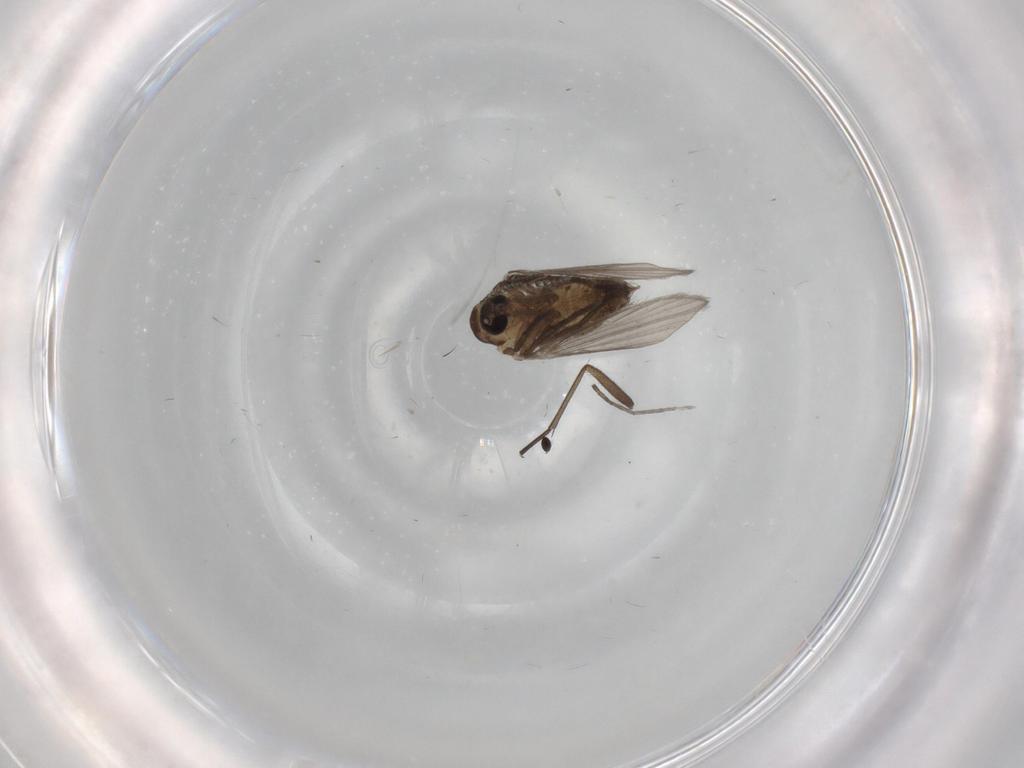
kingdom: Animalia
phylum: Arthropoda
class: Insecta
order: Diptera
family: Psychodidae
